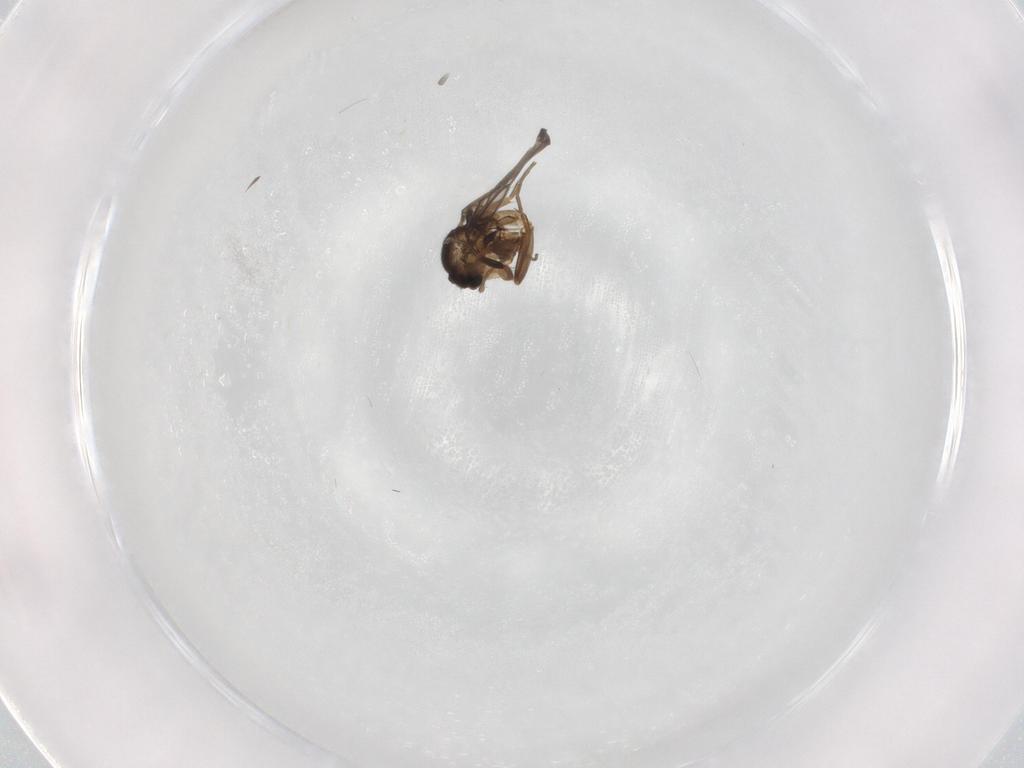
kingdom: Animalia
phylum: Arthropoda
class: Insecta
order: Diptera
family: Phoridae
